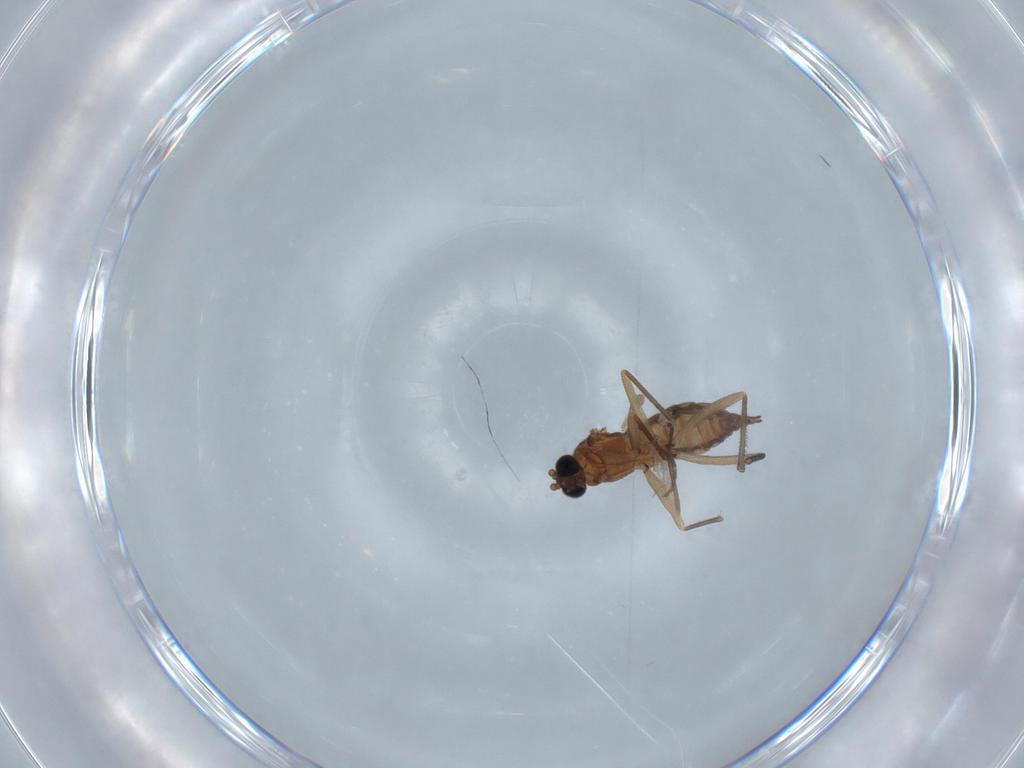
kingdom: Animalia
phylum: Arthropoda
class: Insecta
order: Diptera
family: Sciaridae
